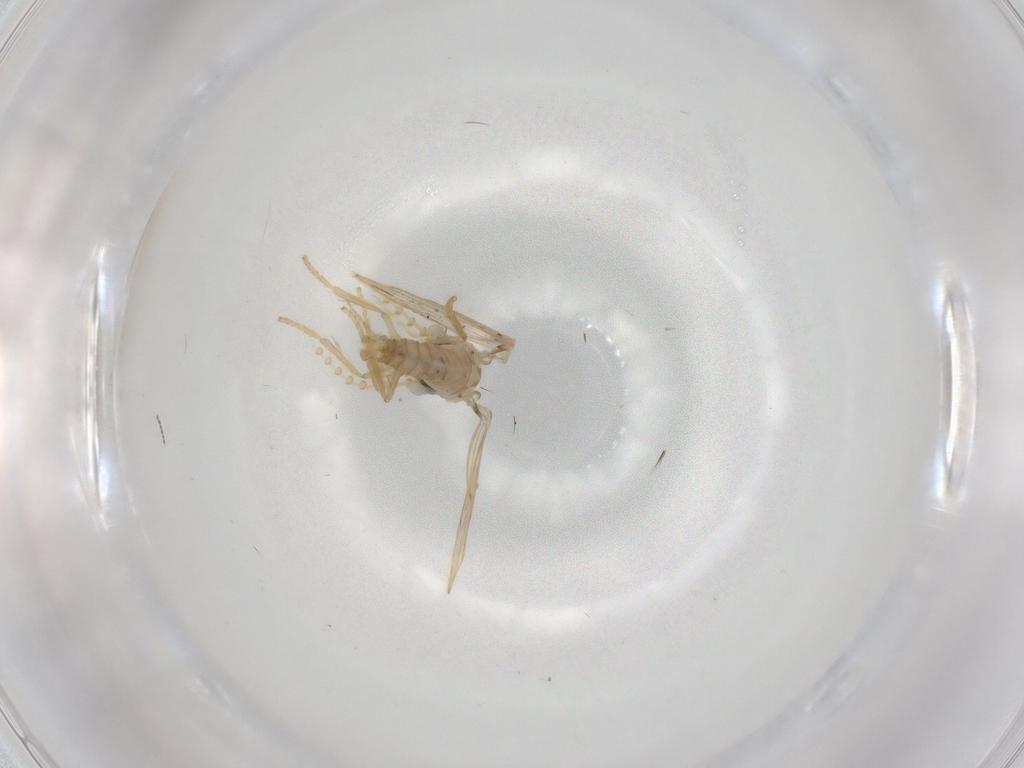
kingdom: Animalia
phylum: Arthropoda
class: Insecta
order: Diptera
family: Psychodidae
